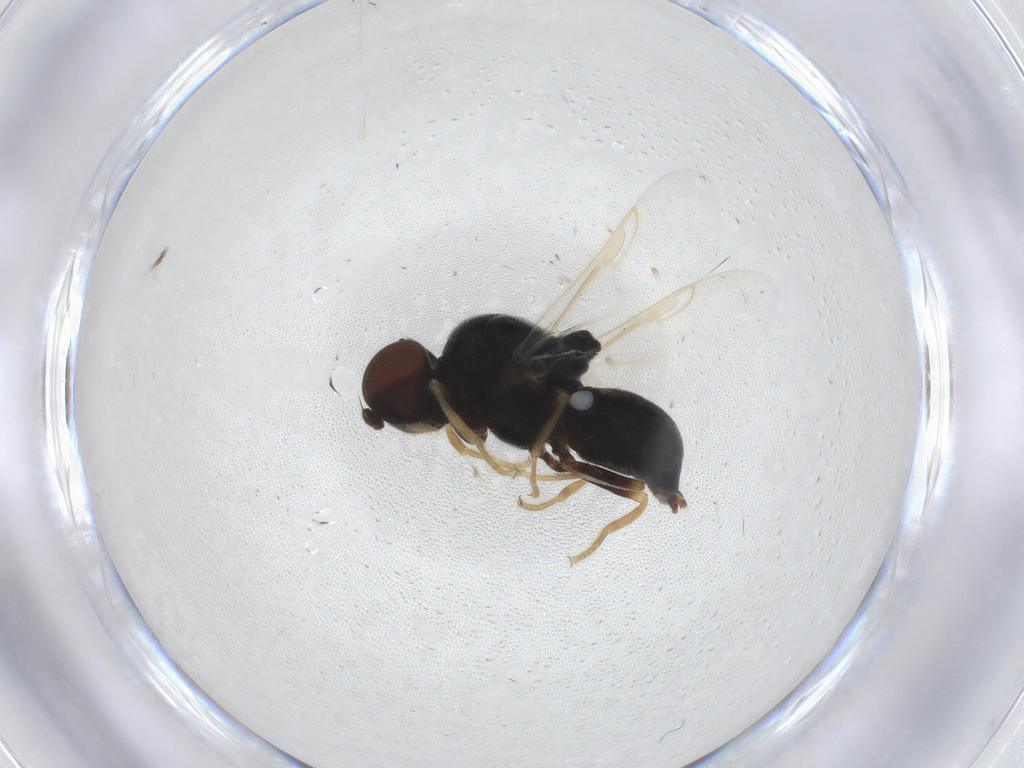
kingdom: Animalia
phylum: Arthropoda
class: Insecta
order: Diptera
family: Stratiomyidae
